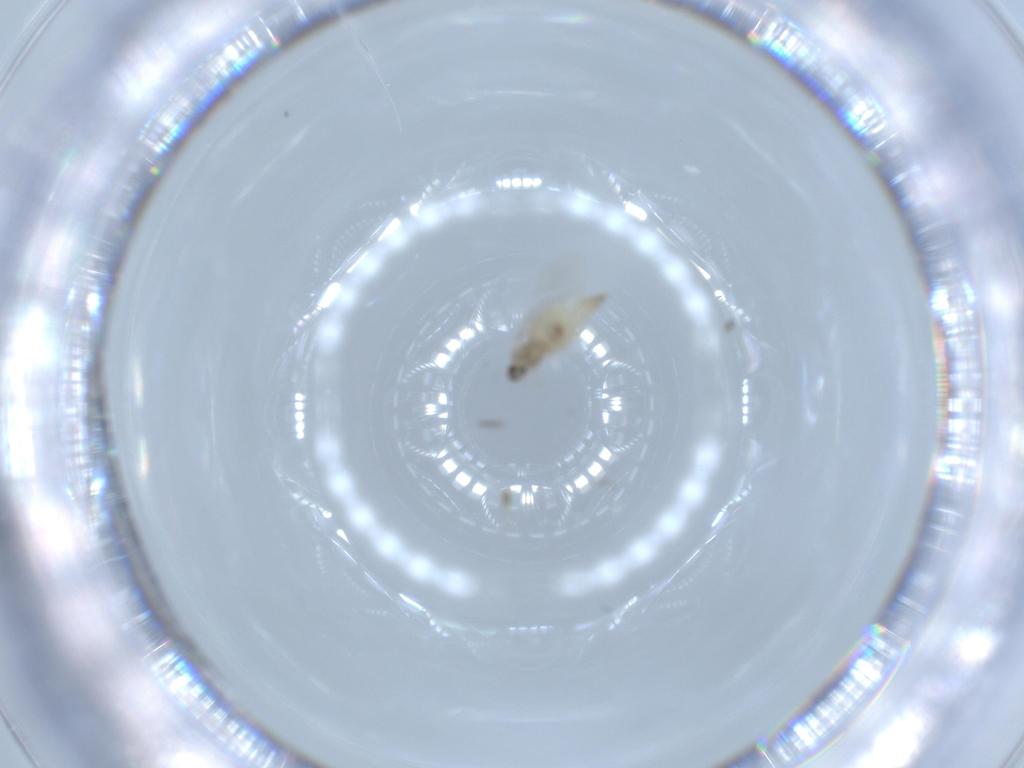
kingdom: Animalia
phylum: Arthropoda
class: Insecta
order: Diptera
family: Cecidomyiidae
